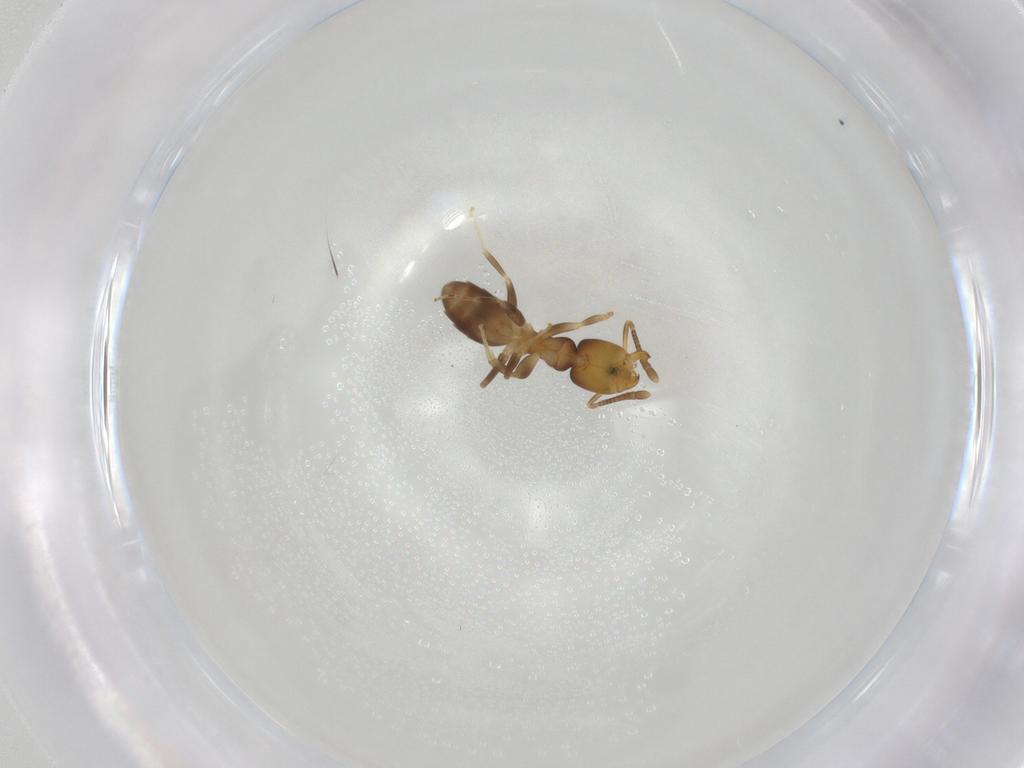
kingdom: Animalia
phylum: Arthropoda
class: Insecta
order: Hymenoptera
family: Formicidae
